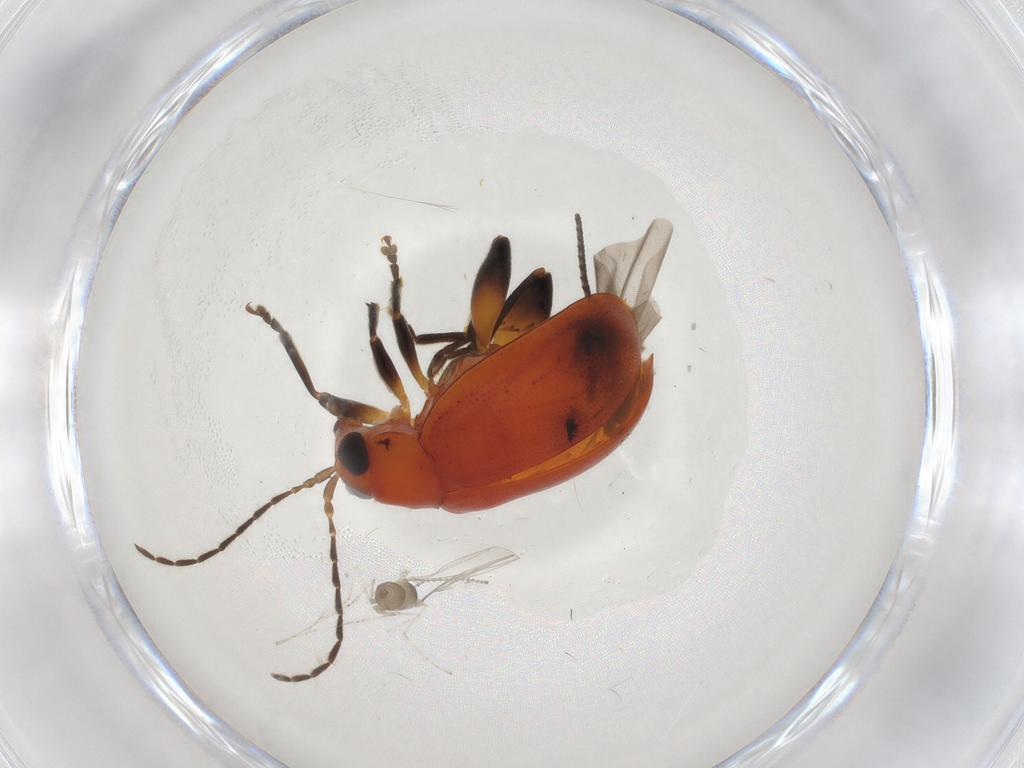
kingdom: Animalia
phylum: Arthropoda
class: Insecta
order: Coleoptera
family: Chrysomelidae
